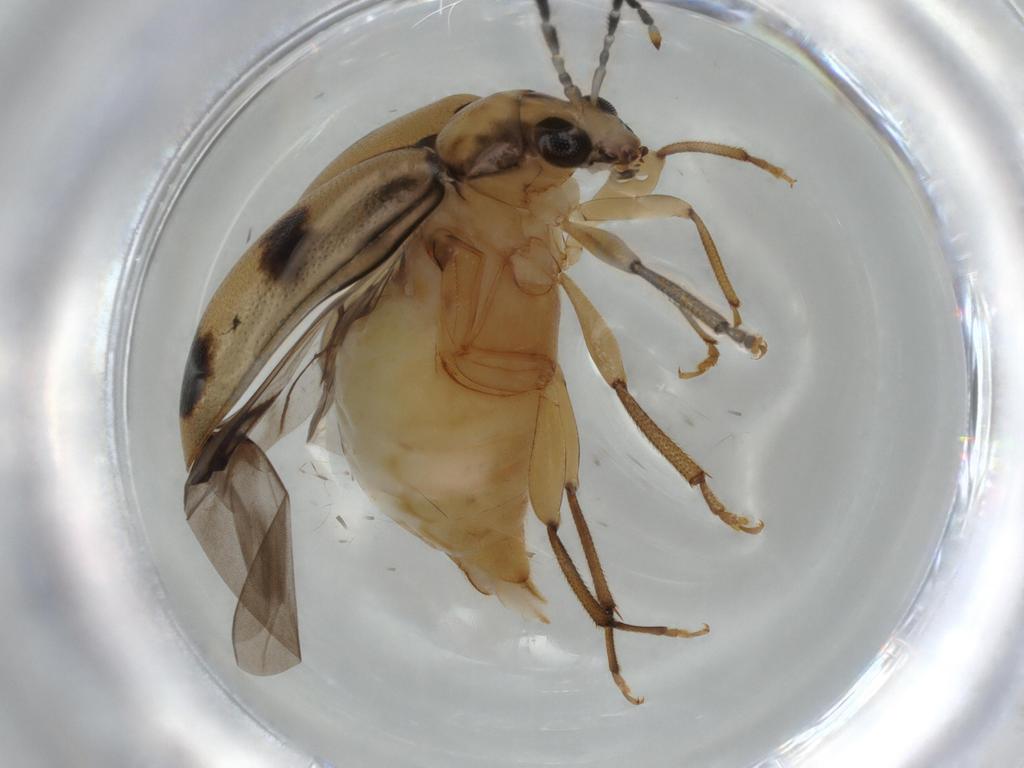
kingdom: Animalia
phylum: Arthropoda
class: Insecta
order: Coleoptera
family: Chrysomelidae
